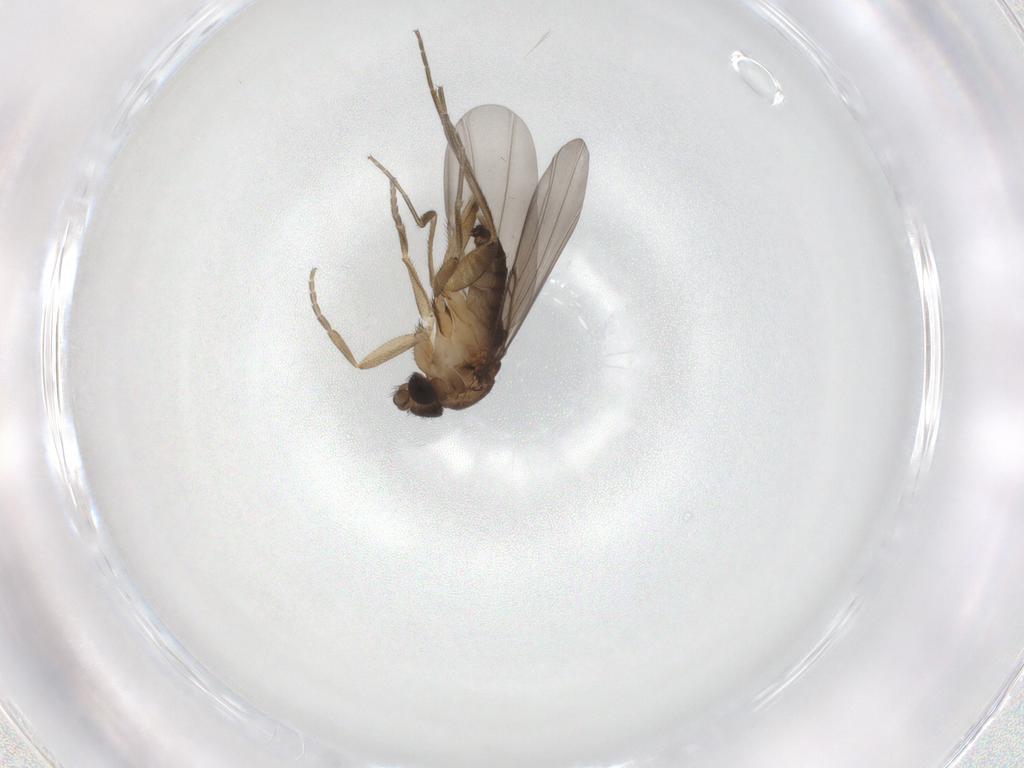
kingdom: Animalia
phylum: Arthropoda
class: Insecta
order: Diptera
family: Phoridae
